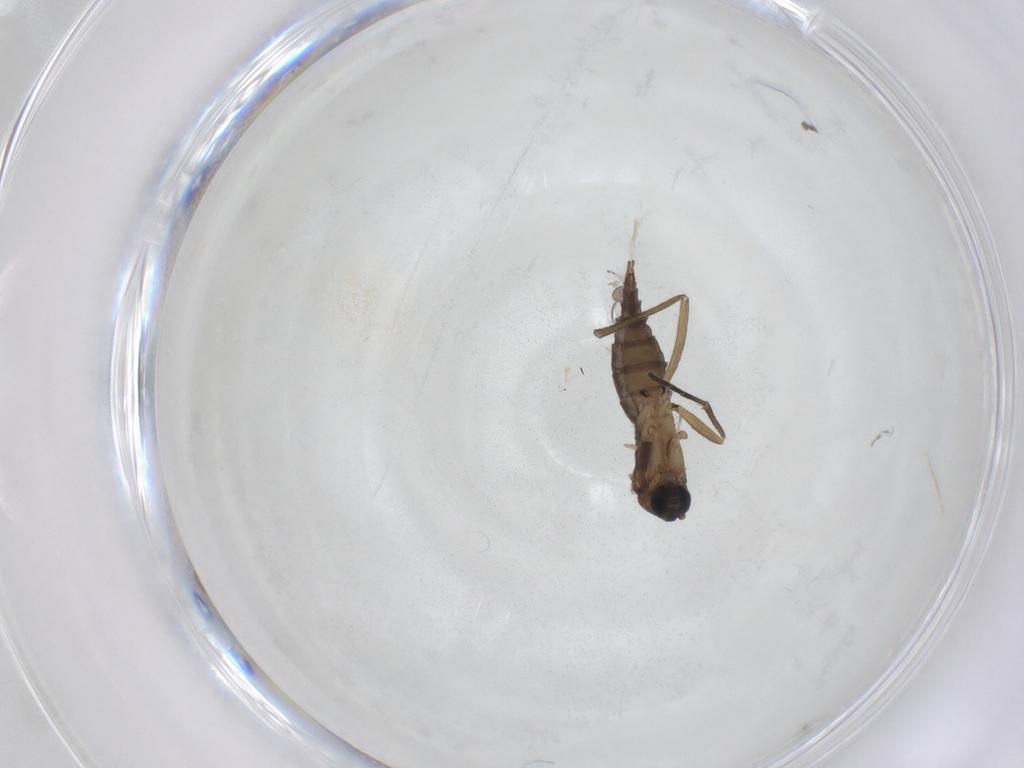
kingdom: Animalia
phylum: Arthropoda
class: Insecta
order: Diptera
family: Sciaridae
